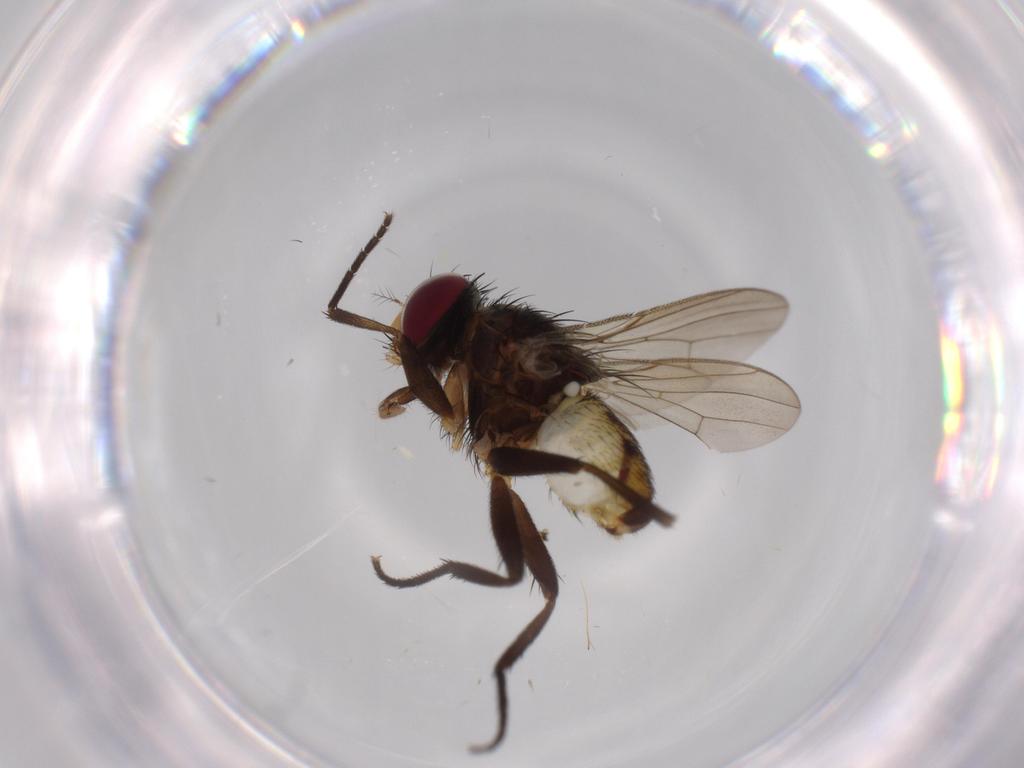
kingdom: Animalia
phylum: Arthropoda
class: Insecta
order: Diptera
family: Anthomyiidae
